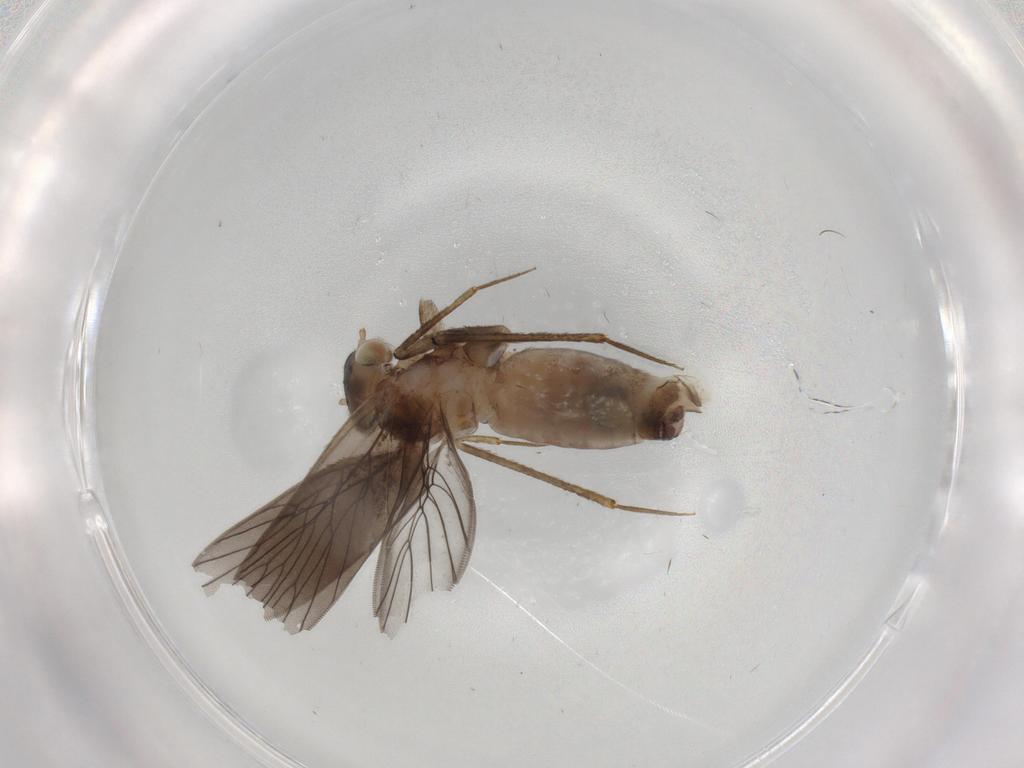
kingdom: Animalia
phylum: Arthropoda
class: Insecta
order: Psocodea
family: Lepidopsocidae
